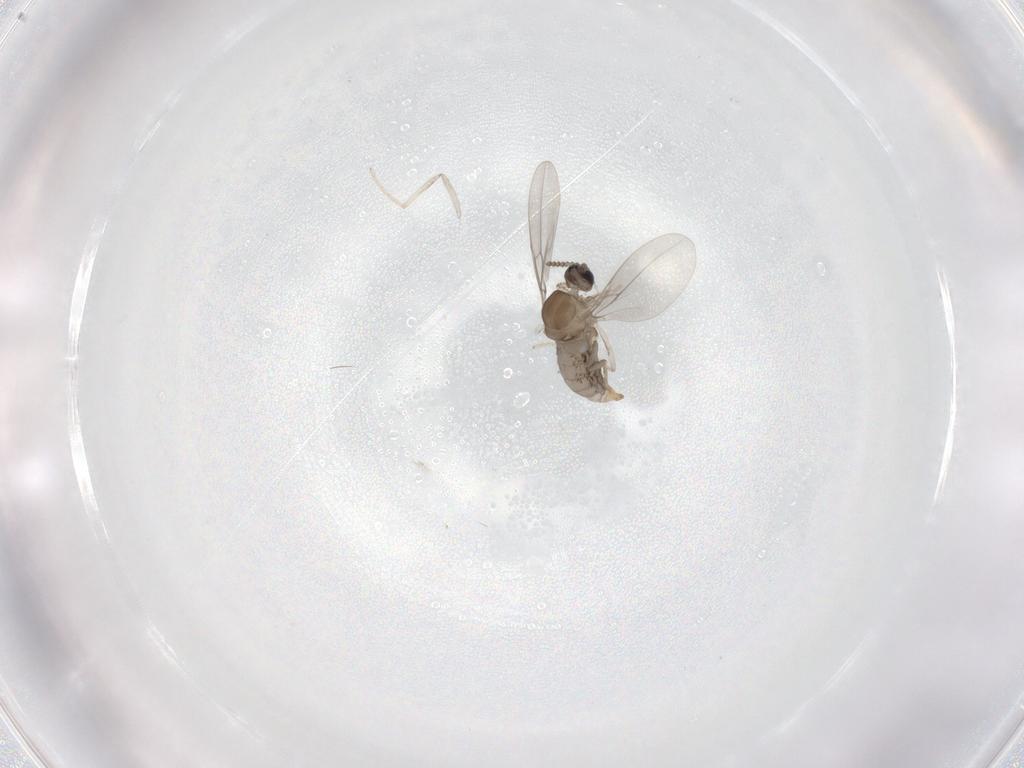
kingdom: Animalia
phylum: Arthropoda
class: Insecta
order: Diptera
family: Cecidomyiidae
